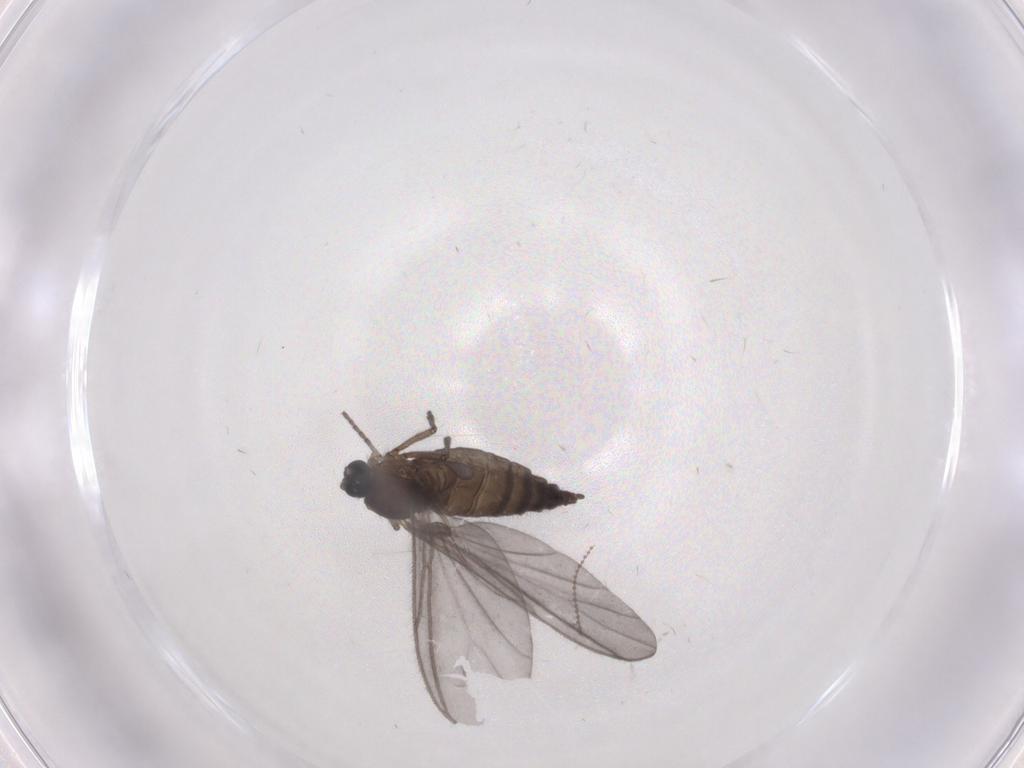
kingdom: Animalia
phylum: Arthropoda
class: Insecta
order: Diptera
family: Sciaridae
